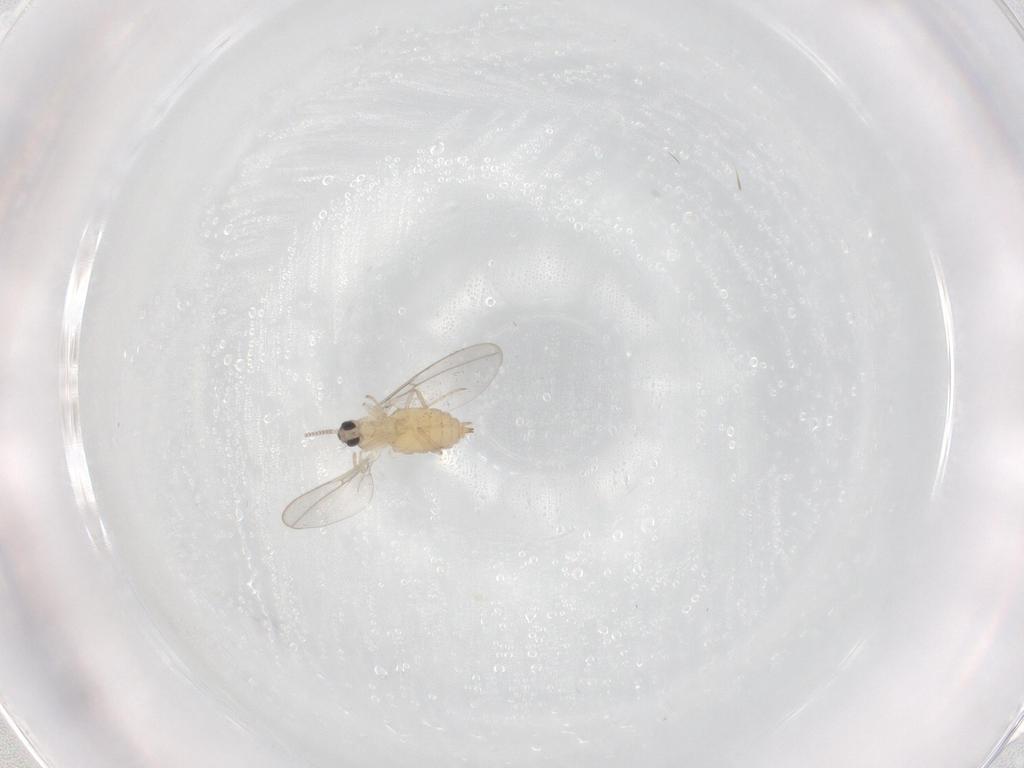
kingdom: Animalia
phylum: Arthropoda
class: Insecta
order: Diptera
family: Cecidomyiidae
